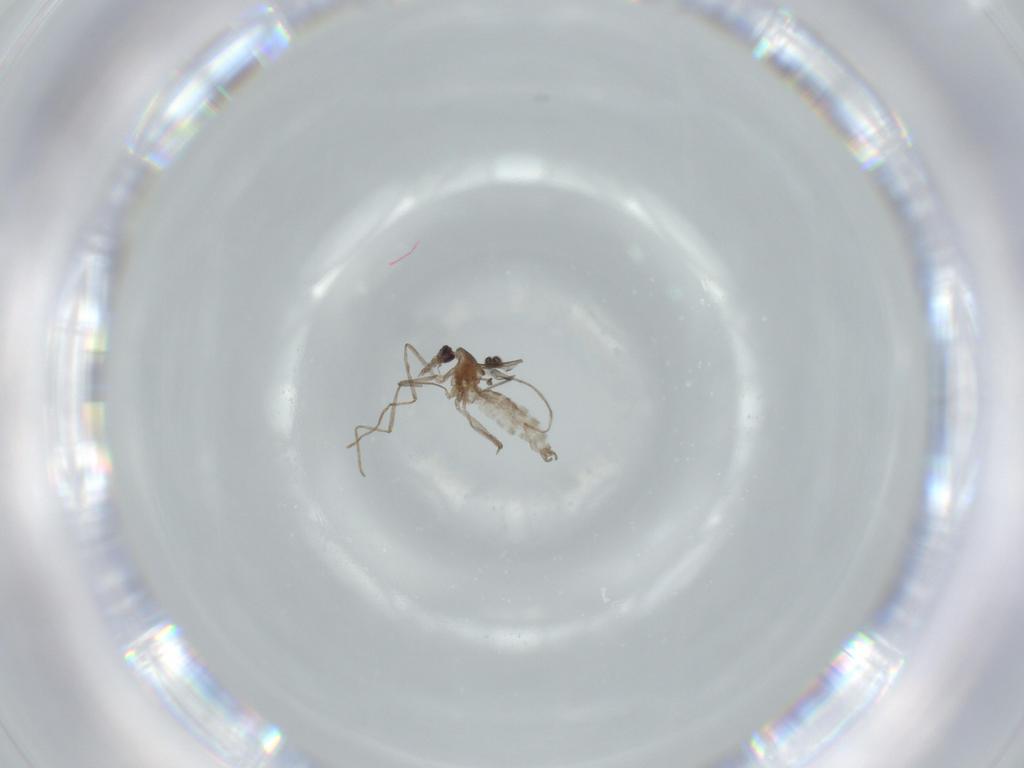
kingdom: Animalia
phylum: Arthropoda
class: Insecta
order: Diptera
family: Sciaridae
